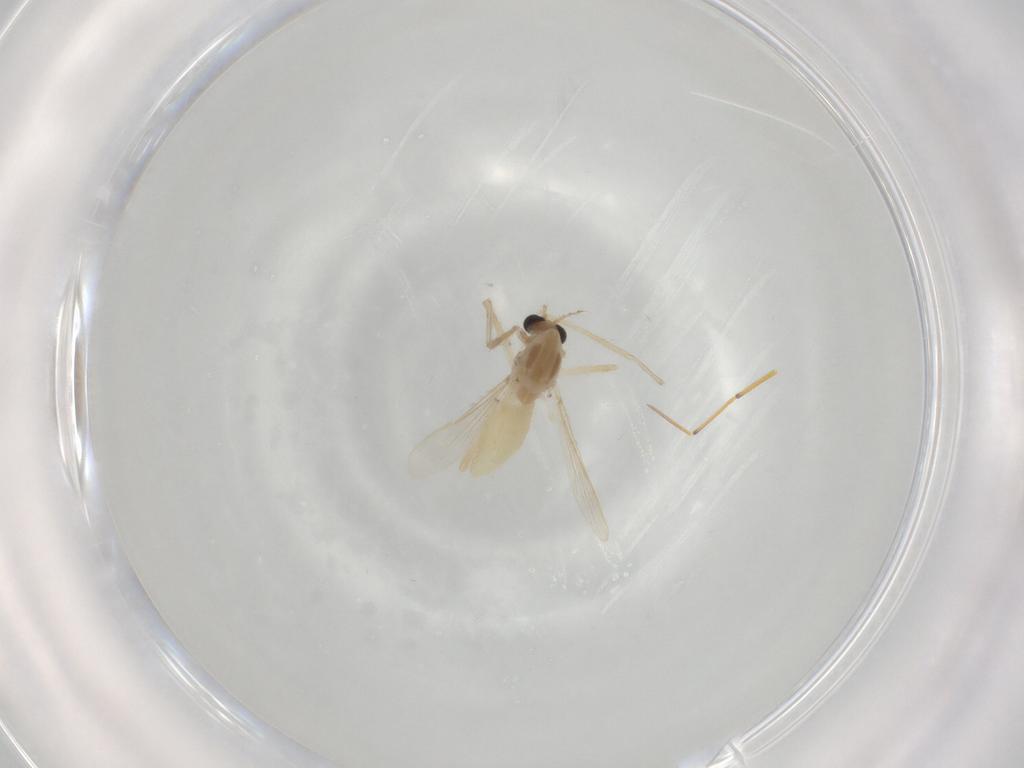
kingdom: Animalia
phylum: Arthropoda
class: Insecta
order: Diptera
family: Chironomidae
